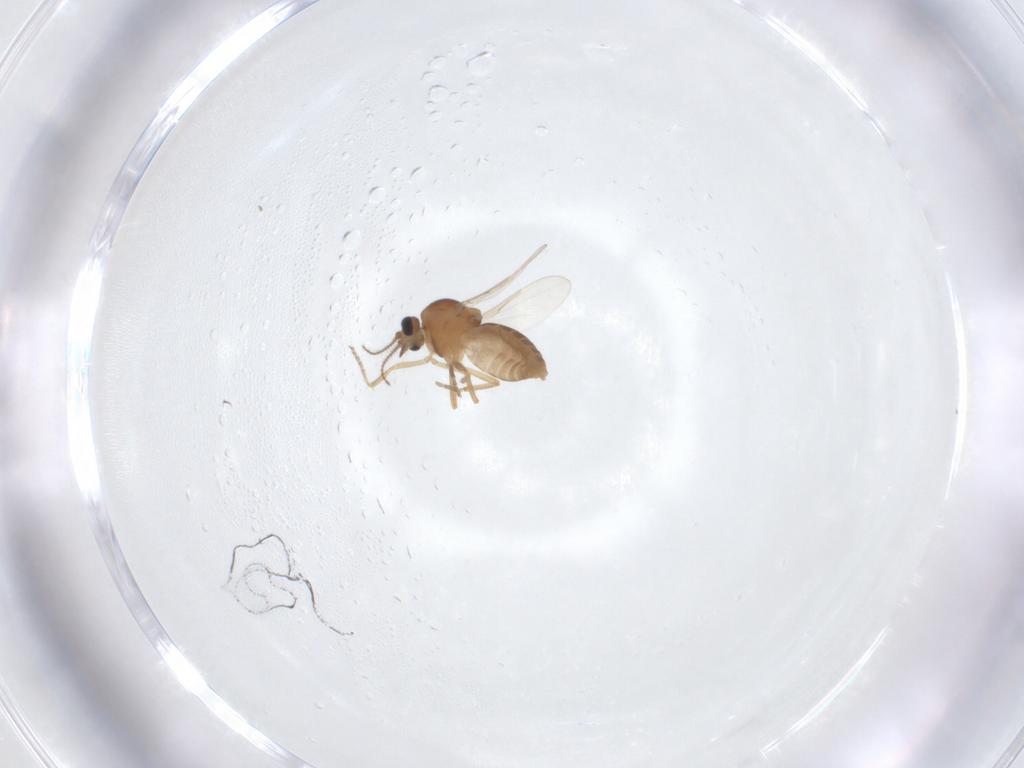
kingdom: Animalia
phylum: Arthropoda
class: Insecta
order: Diptera
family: Ceratopogonidae
